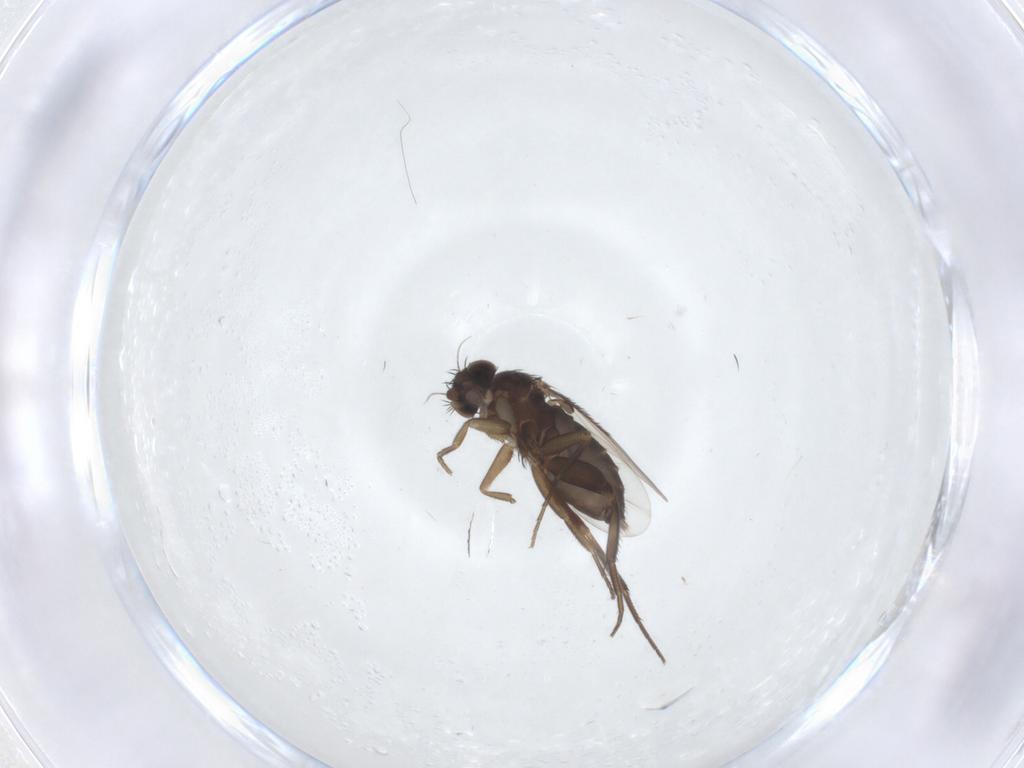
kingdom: Animalia
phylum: Arthropoda
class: Insecta
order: Diptera
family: Phoridae
